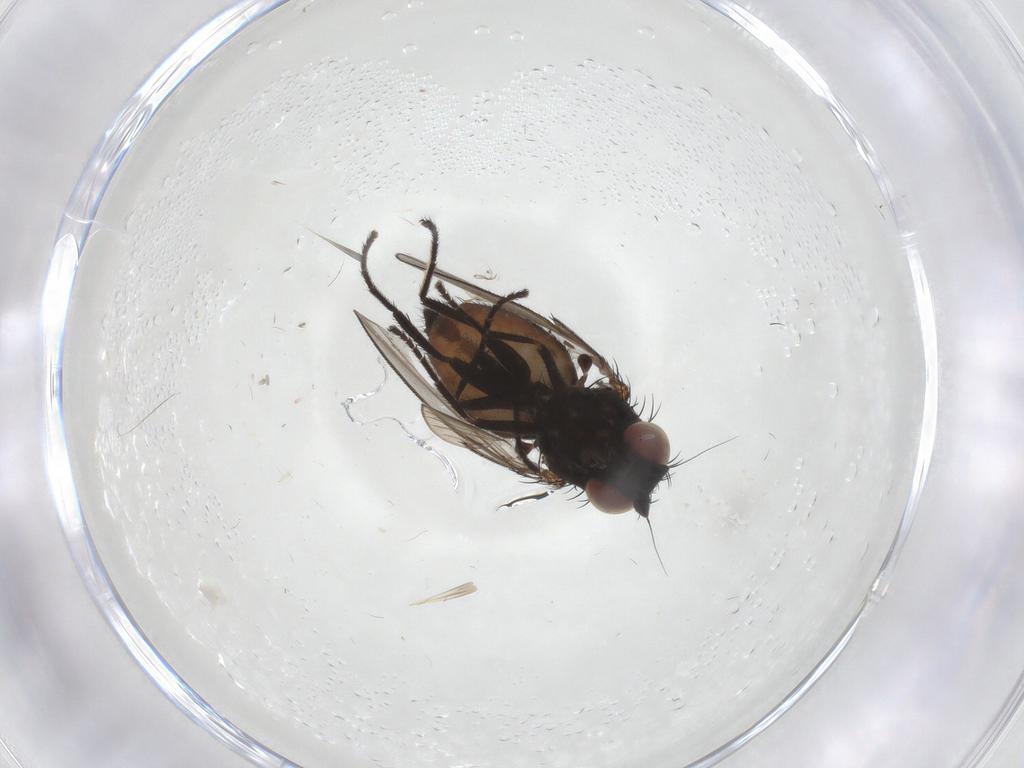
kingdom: Animalia
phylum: Arthropoda
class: Insecta
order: Diptera
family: Milichiidae
